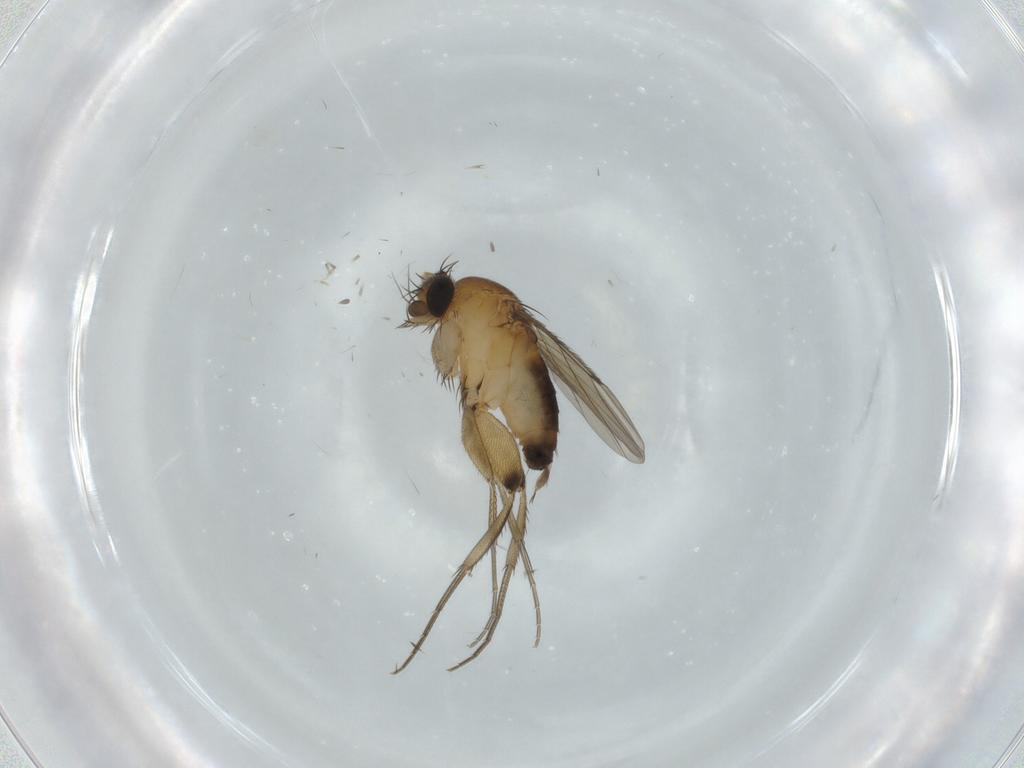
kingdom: Animalia
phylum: Arthropoda
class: Insecta
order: Diptera
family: Phoridae
